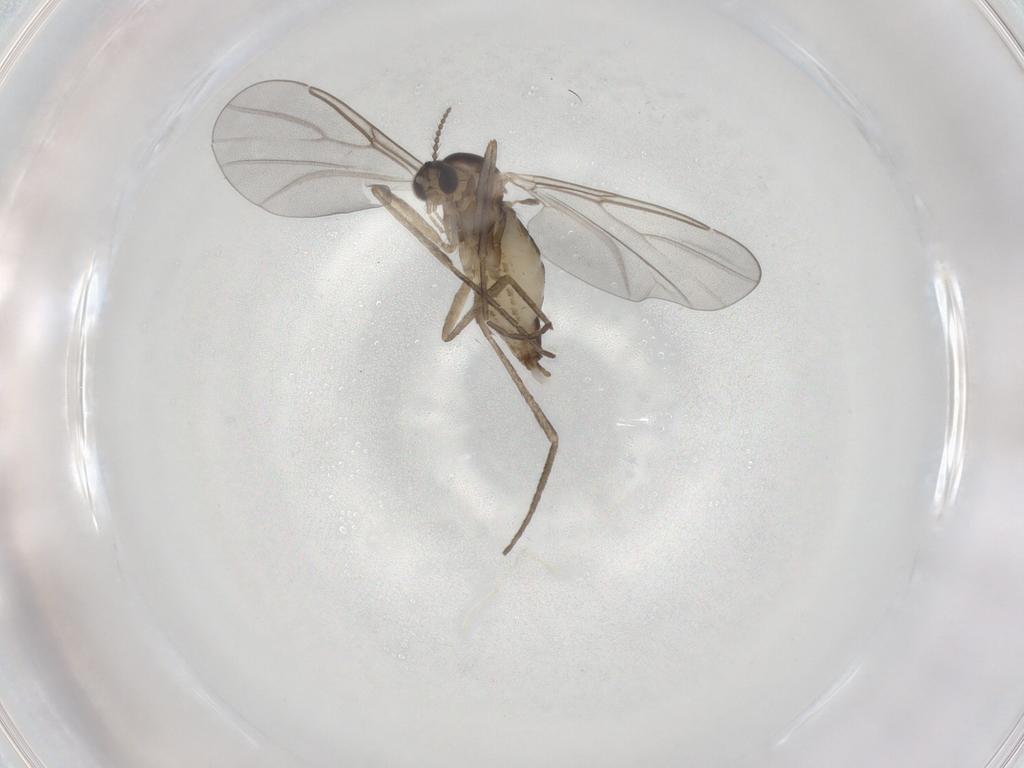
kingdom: Animalia
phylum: Arthropoda
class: Insecta
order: Diptera
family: Cecidomyiidae
